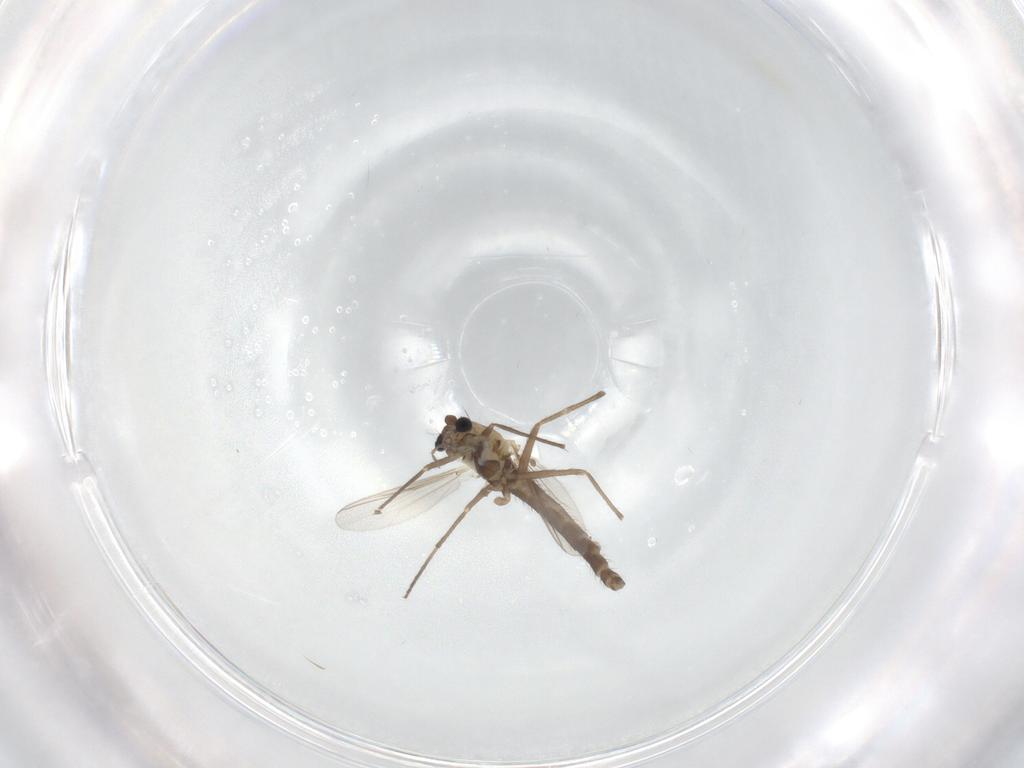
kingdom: Animalia
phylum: Arthropoda
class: Insecta
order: Diptera
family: Chironomidae
